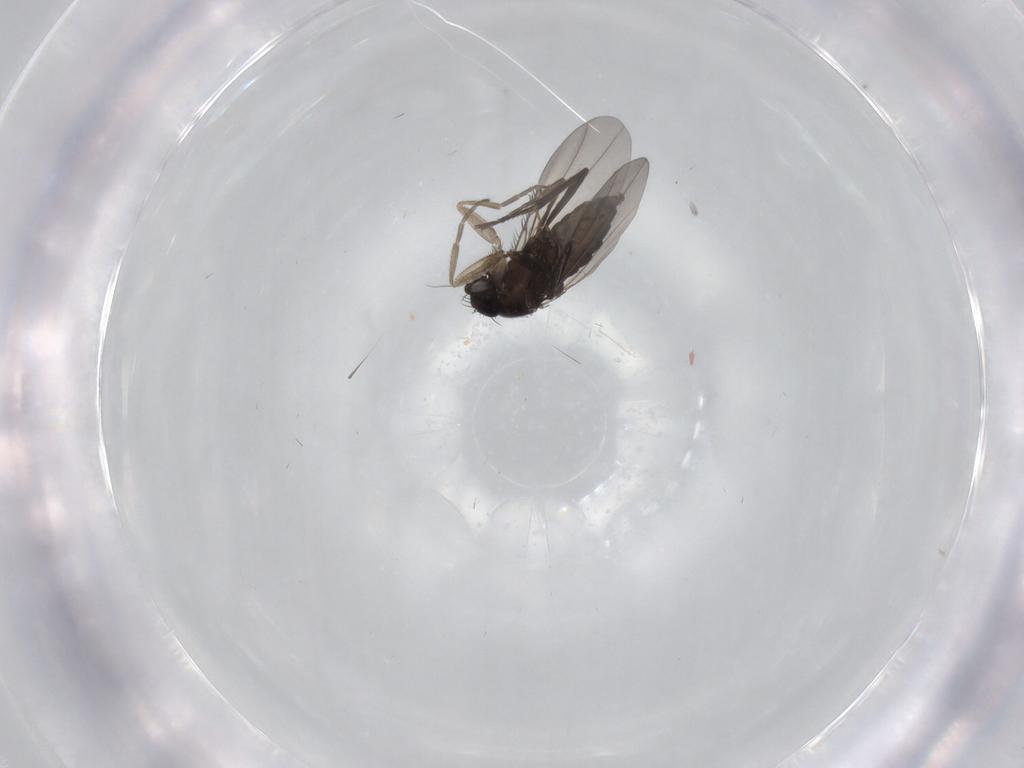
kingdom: Animalia
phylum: Arthropoda
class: Insecta
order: Diptera
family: Phoridae
